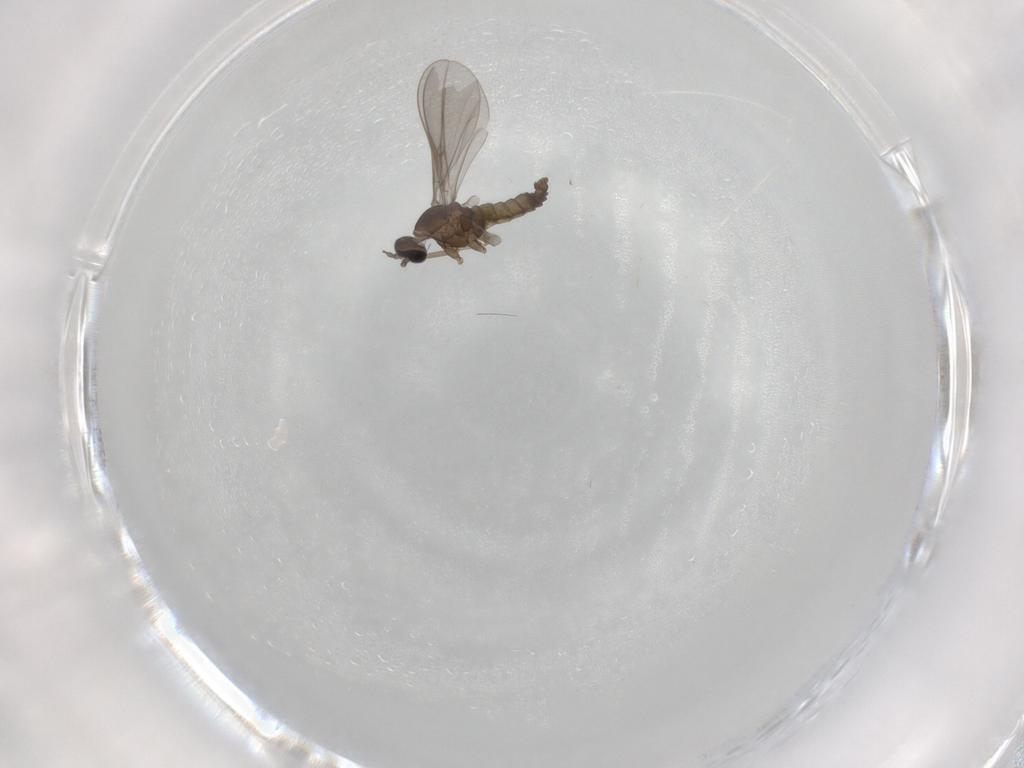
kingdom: Animalia
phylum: Arthropoda
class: Insecta
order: Diptera
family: Cecidomyiidae
